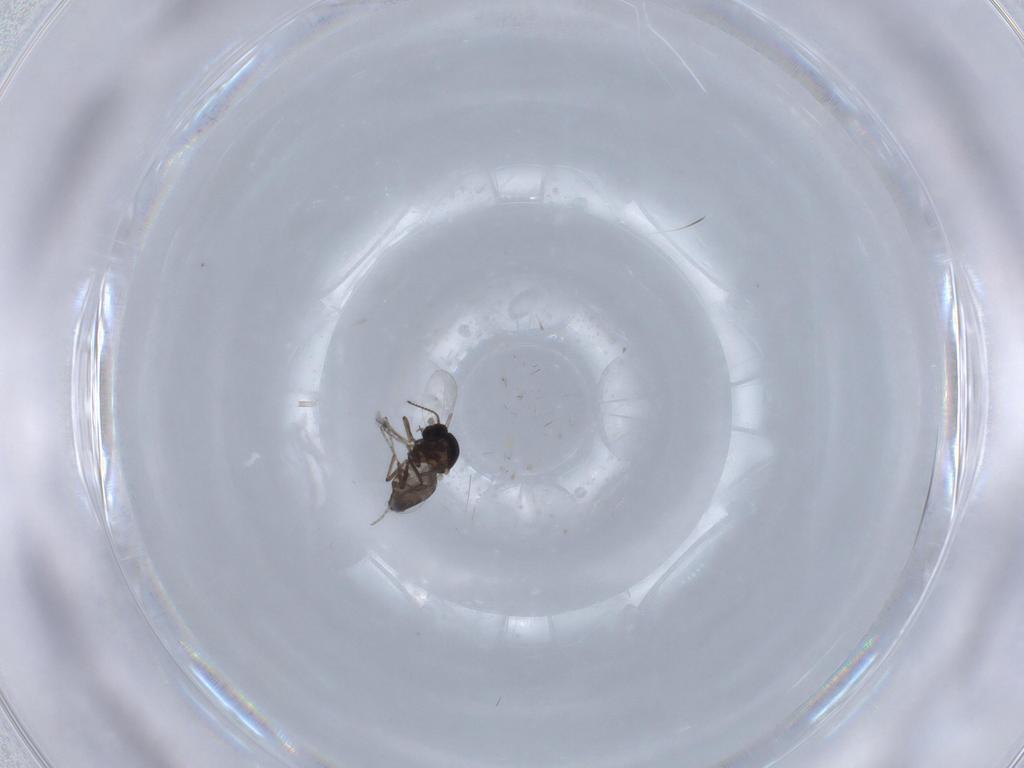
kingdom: Animalia
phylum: Arthropoda
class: Insecta
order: Diptera
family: Ceratopogonidae
